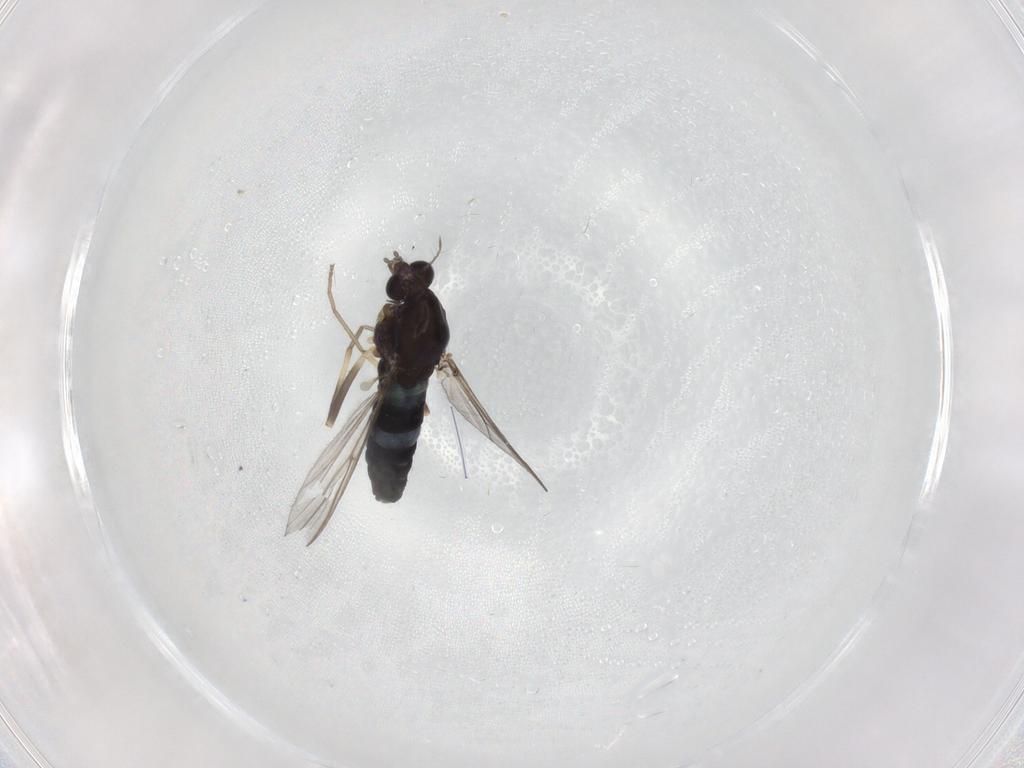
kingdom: Animalia
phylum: Arthropoda
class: Insecta
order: Diptera
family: Chironomidae
